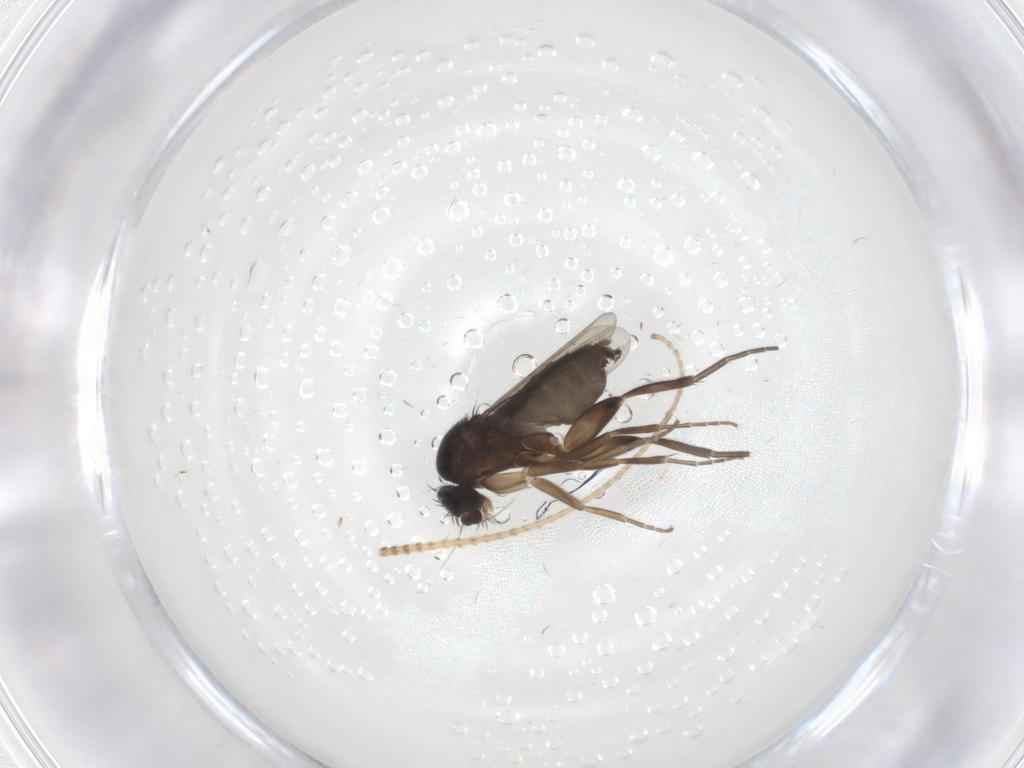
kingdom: Animalia
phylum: Arthropoda
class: Insecta
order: Diptera
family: Phoridae
